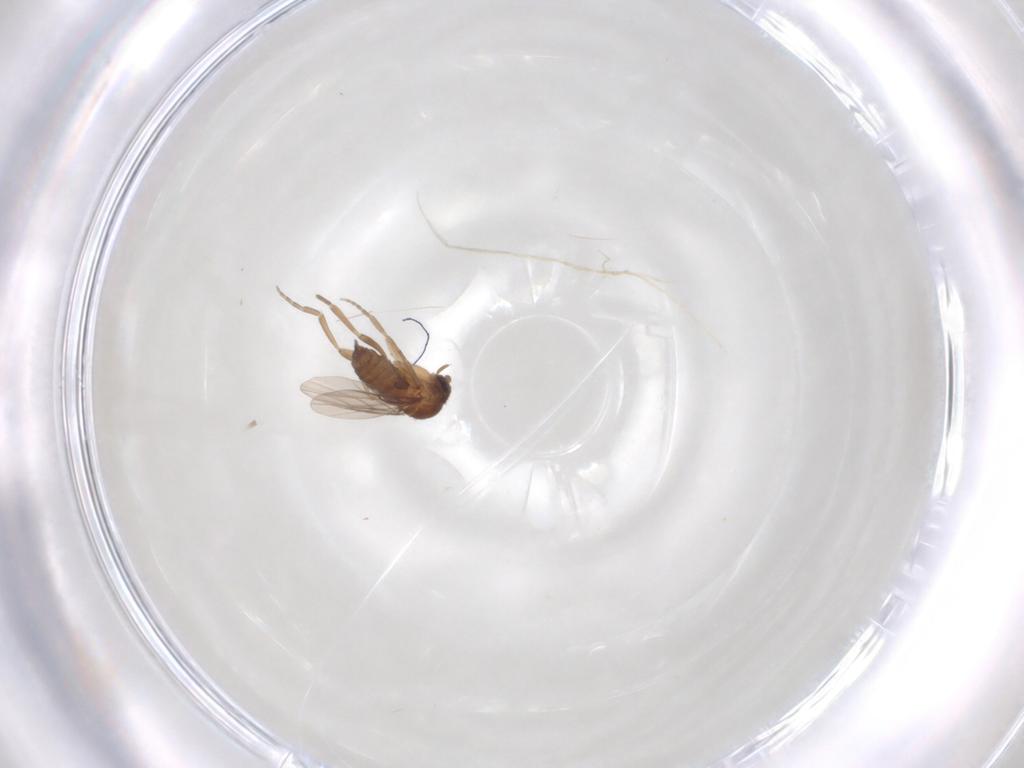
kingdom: Animalia
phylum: Arthropoda
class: Insecta
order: Diptera
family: Phoridae
